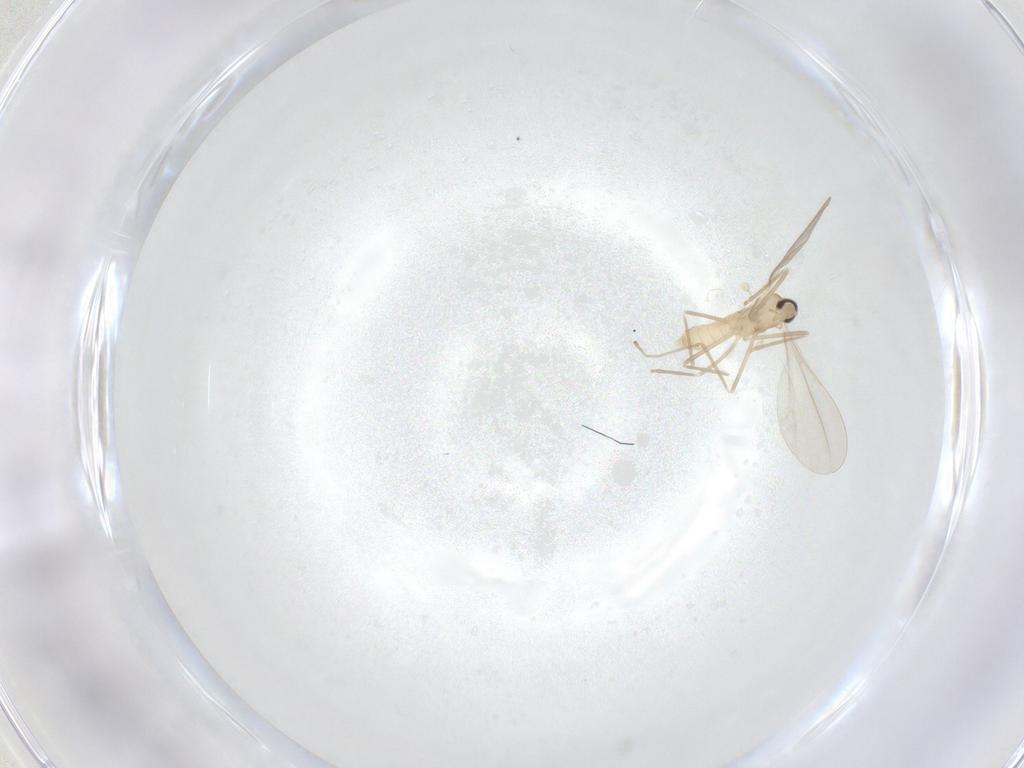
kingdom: Animalia
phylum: Arthropoda
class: Insecta
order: Diptera
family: Cecidomyiidae
